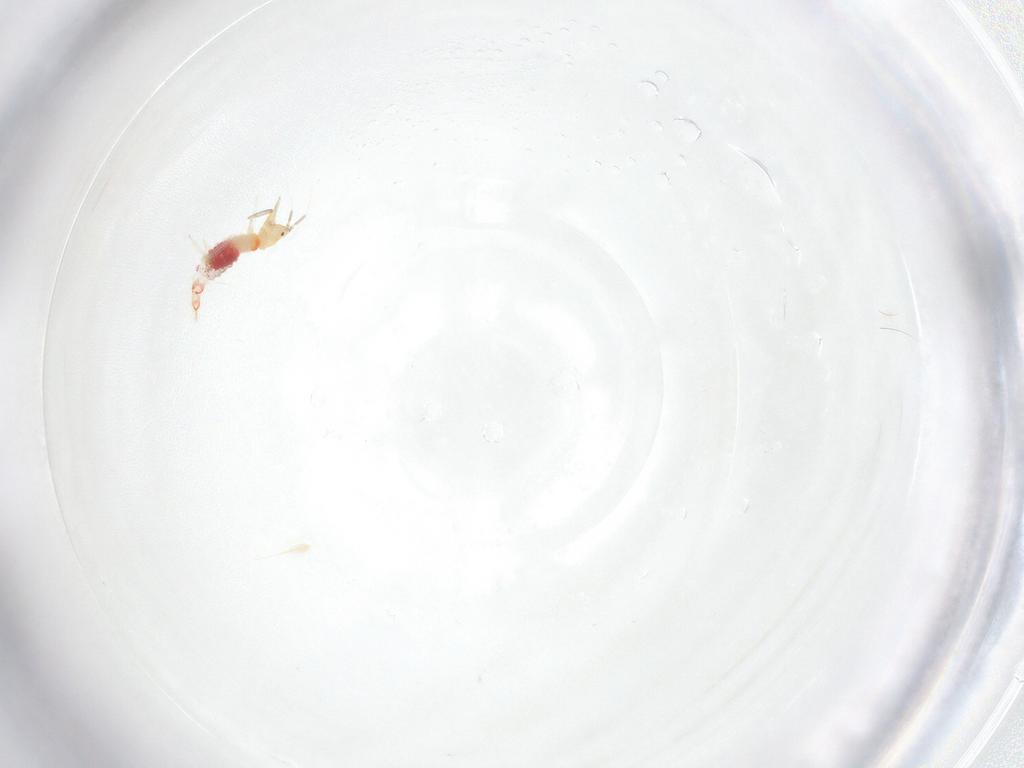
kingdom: Animalia
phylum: Arthropoda
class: Insecta
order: Thysanoptera
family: Aeolothripidae
